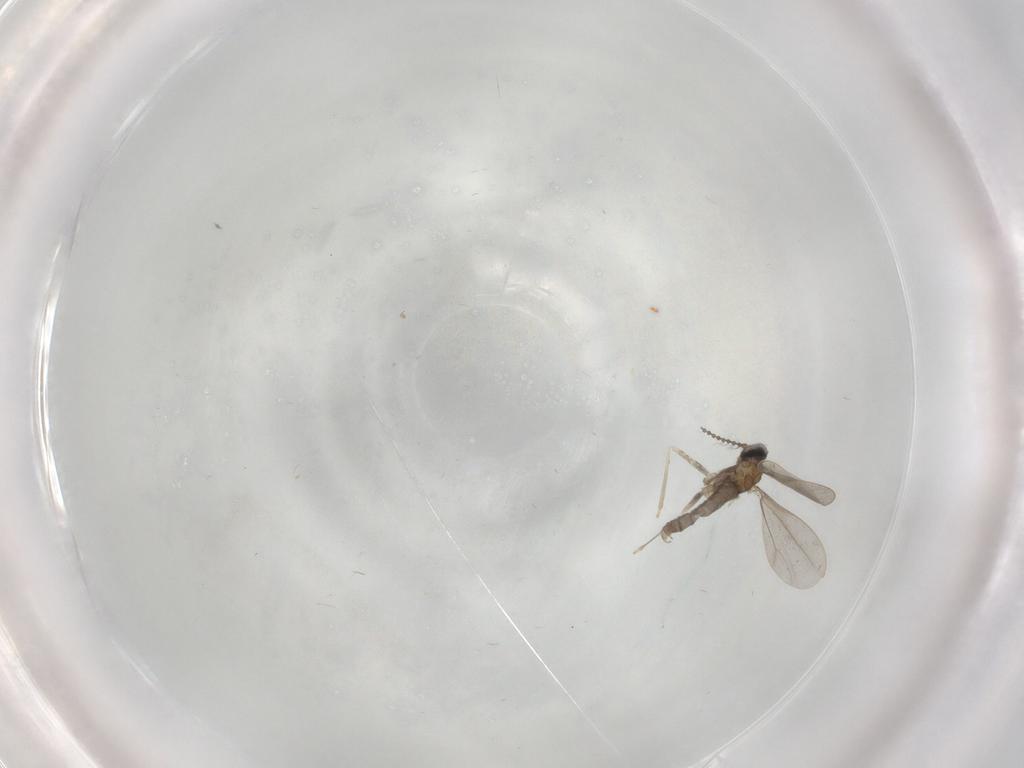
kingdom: Animalia
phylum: Arthropoda
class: Insecta
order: Diptera
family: Cecidomyiidae
